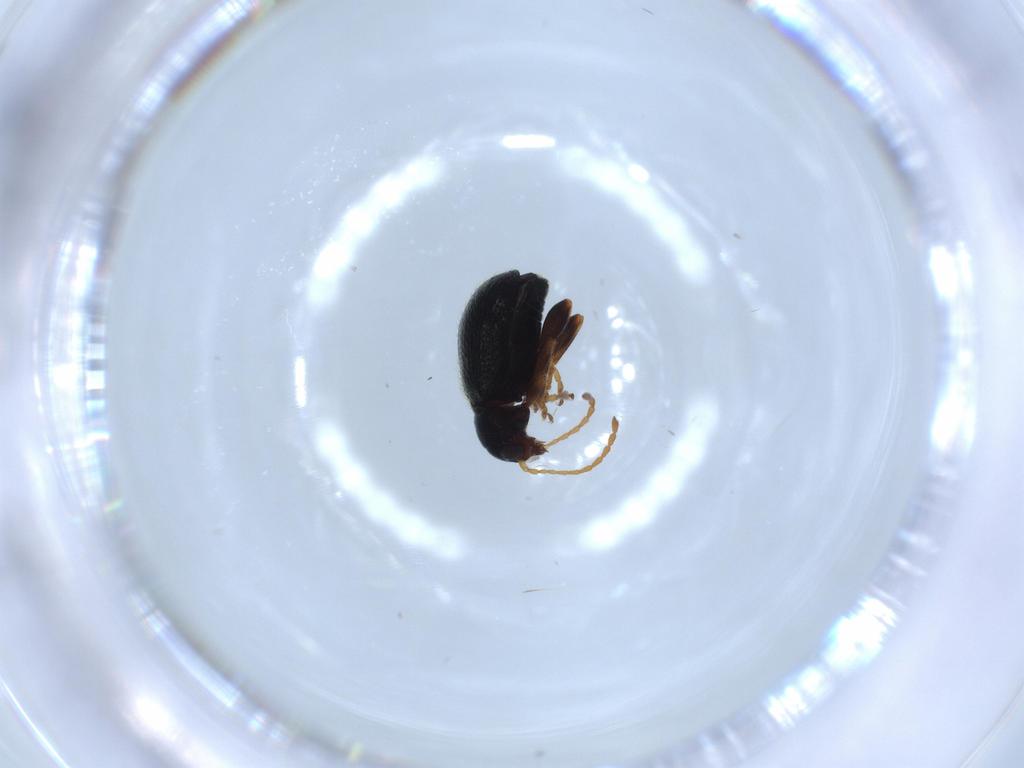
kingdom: Animalia
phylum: Arthropoda
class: Insecta
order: Coleoptera
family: Chrysomelidae
